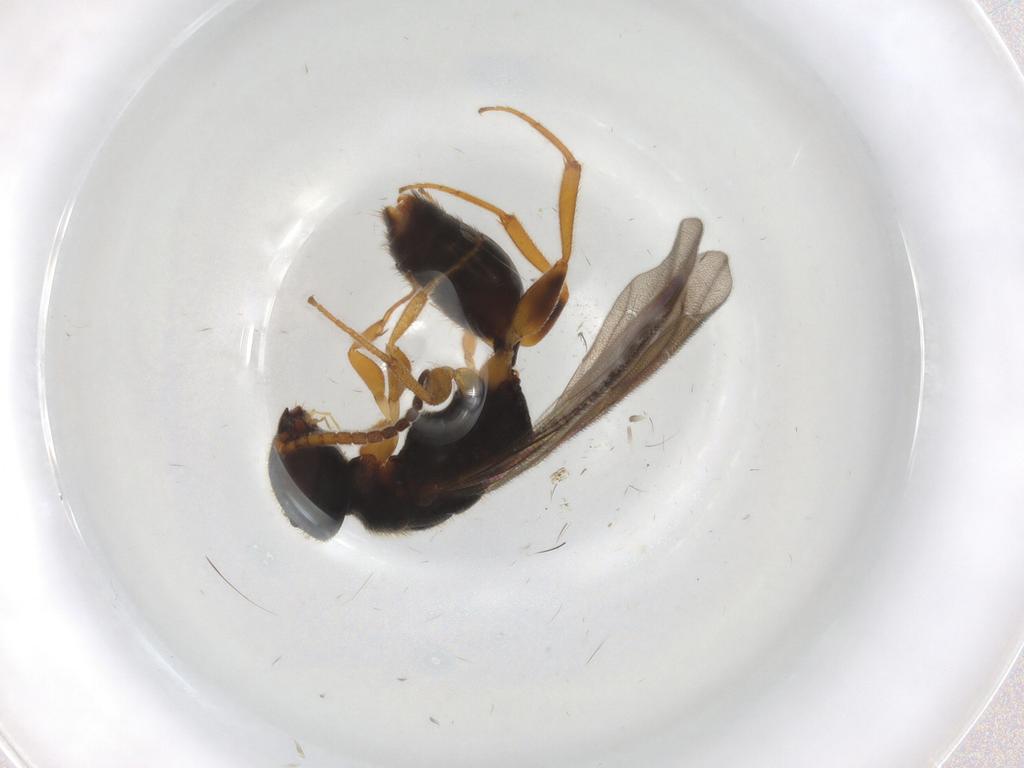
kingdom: Animalia
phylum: Arthropoda
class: Insecta
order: Hymenoptera
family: Bethylidae
